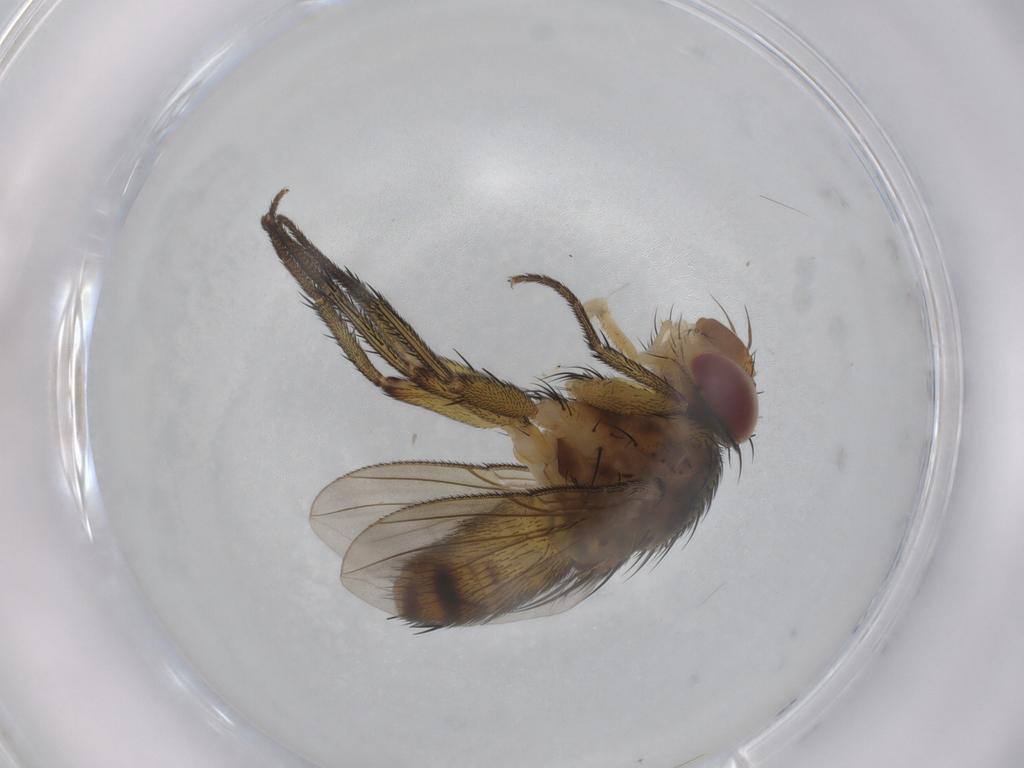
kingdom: Animalia
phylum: Arthropoda
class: Insecta
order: Diptera
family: Tachinidae
